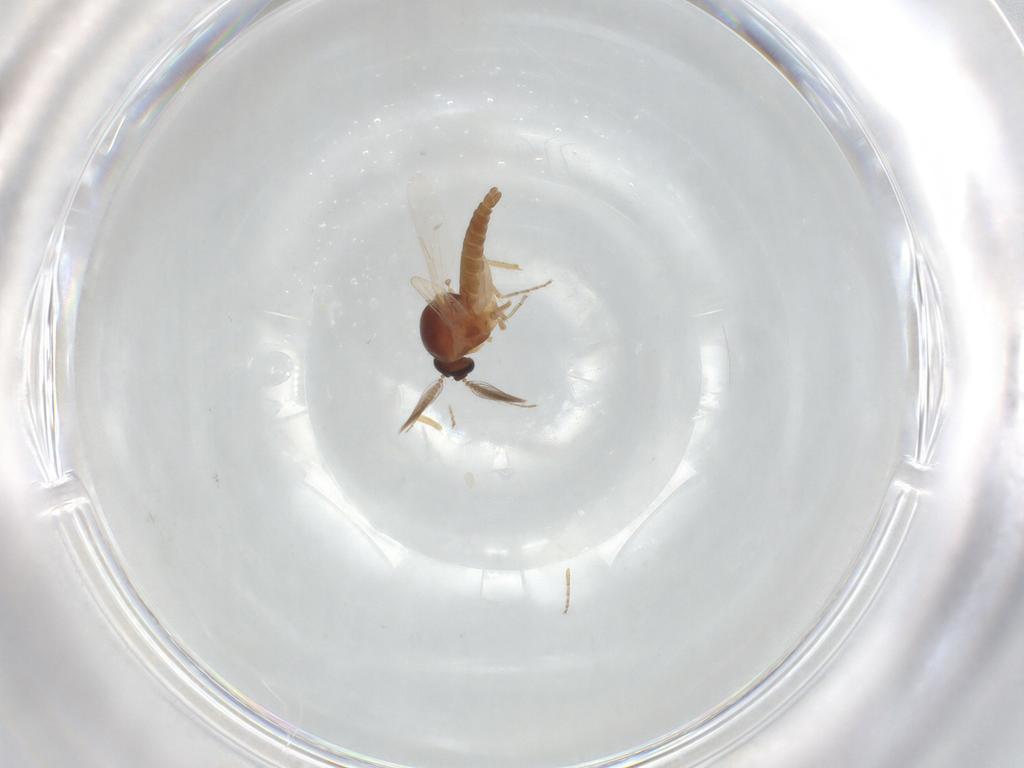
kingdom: Animalia
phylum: Arthropoda
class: Insecta
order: Diptera
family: Ceratopogonidae
